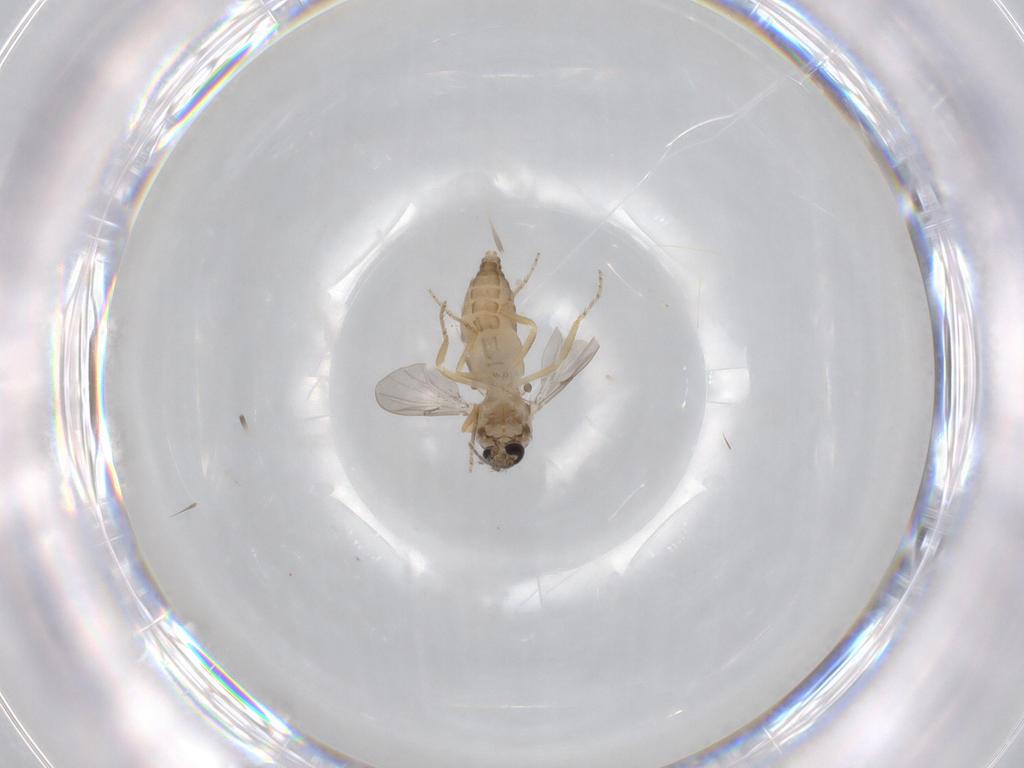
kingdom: Animalia
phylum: Arthropoda
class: Insecta
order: Diptera
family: Ceratopogonidae
